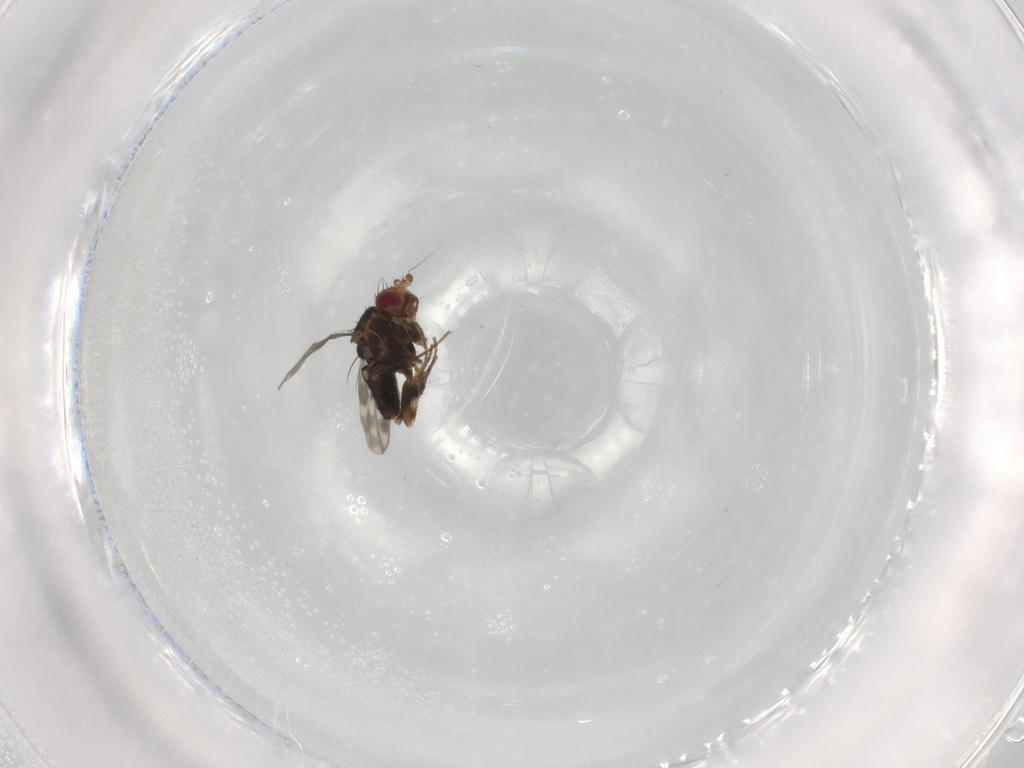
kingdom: Animalia
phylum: Arthropoda
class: Insecta
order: Diptera
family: Sphaeroceridae
